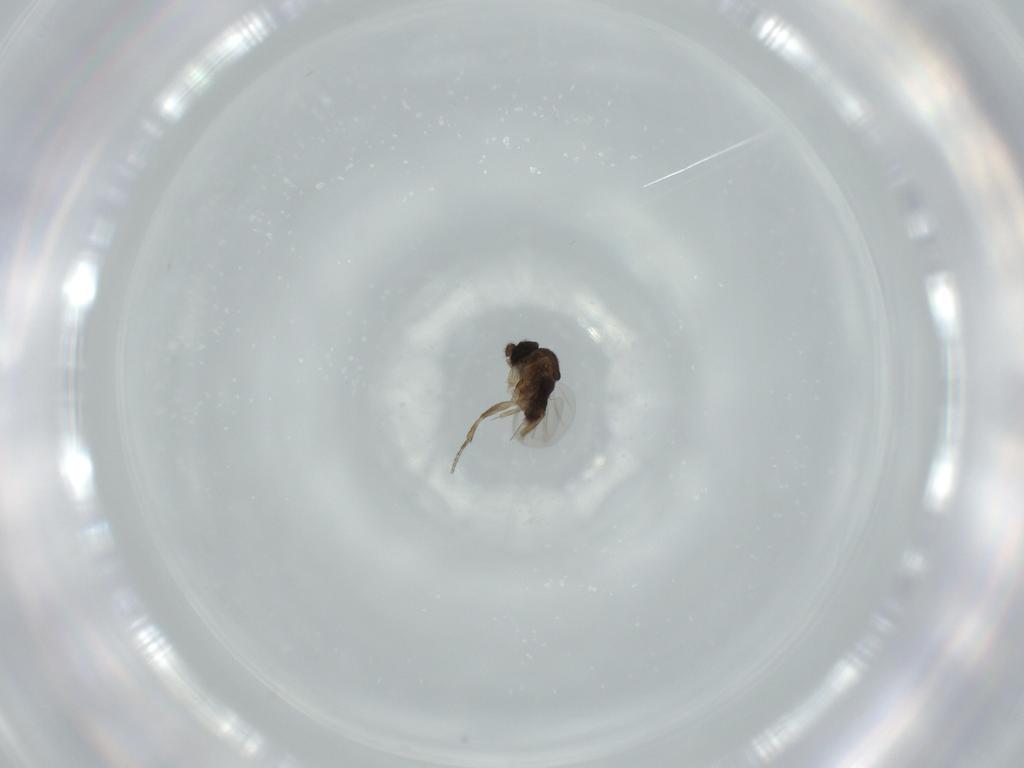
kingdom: Animalia
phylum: Arthropoda
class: Insecta
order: Diptera
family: Phoridae
